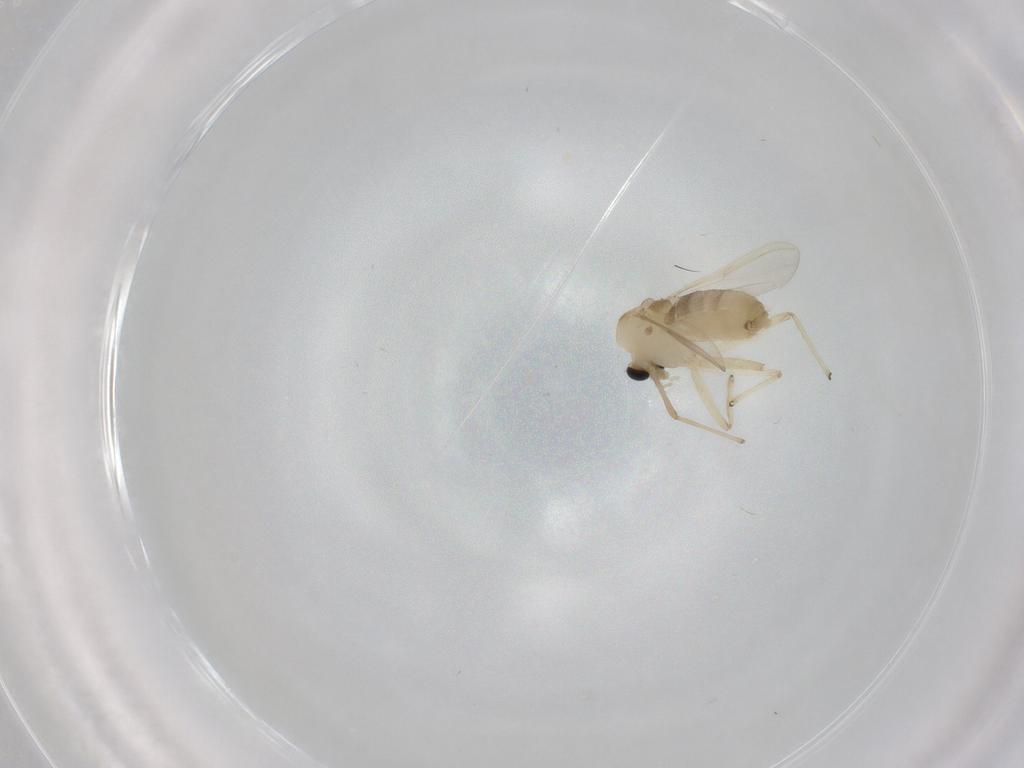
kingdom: Animalia
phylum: Arthropoda
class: Insecta
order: Diptera
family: Chironomidae
